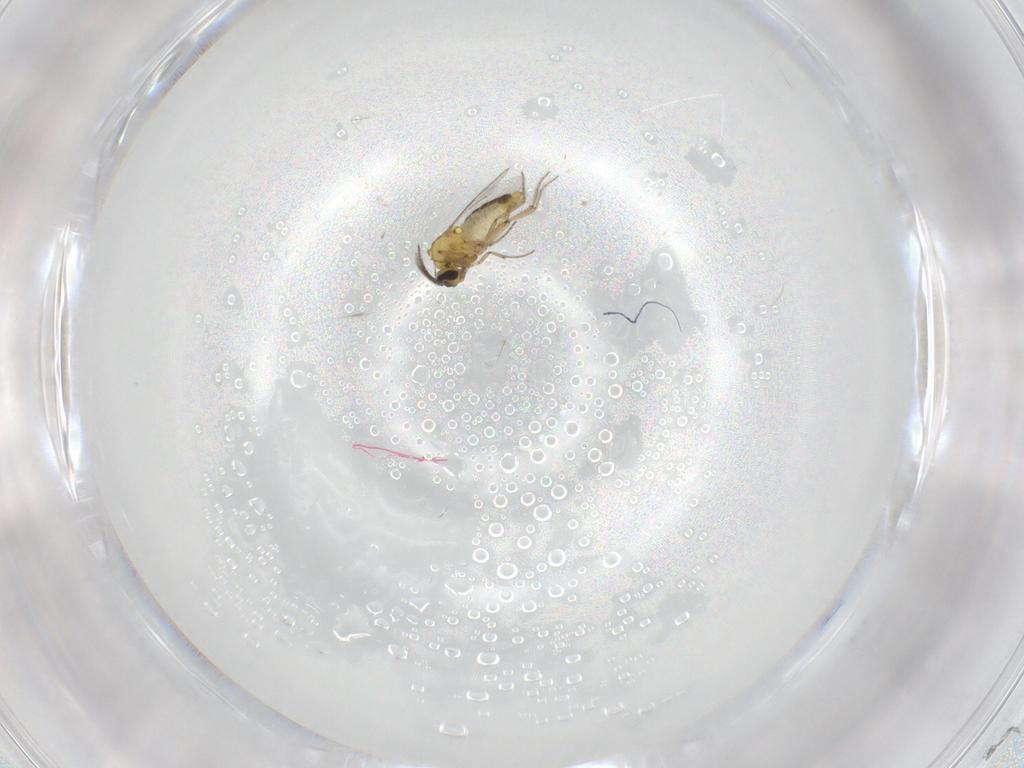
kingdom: Animalia
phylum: Arthropoda
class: Insecta
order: Diptera
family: Ceratopogonidae
